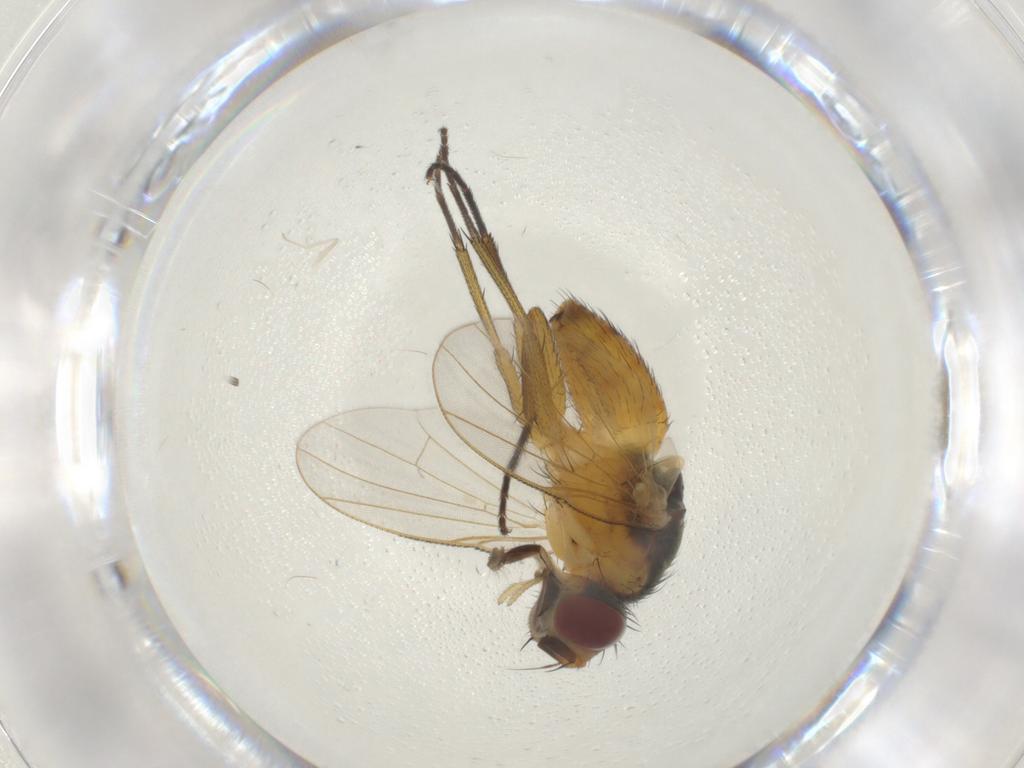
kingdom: Animalia
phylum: Arthropoda
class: Insecta
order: Diptera
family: Muscidae
